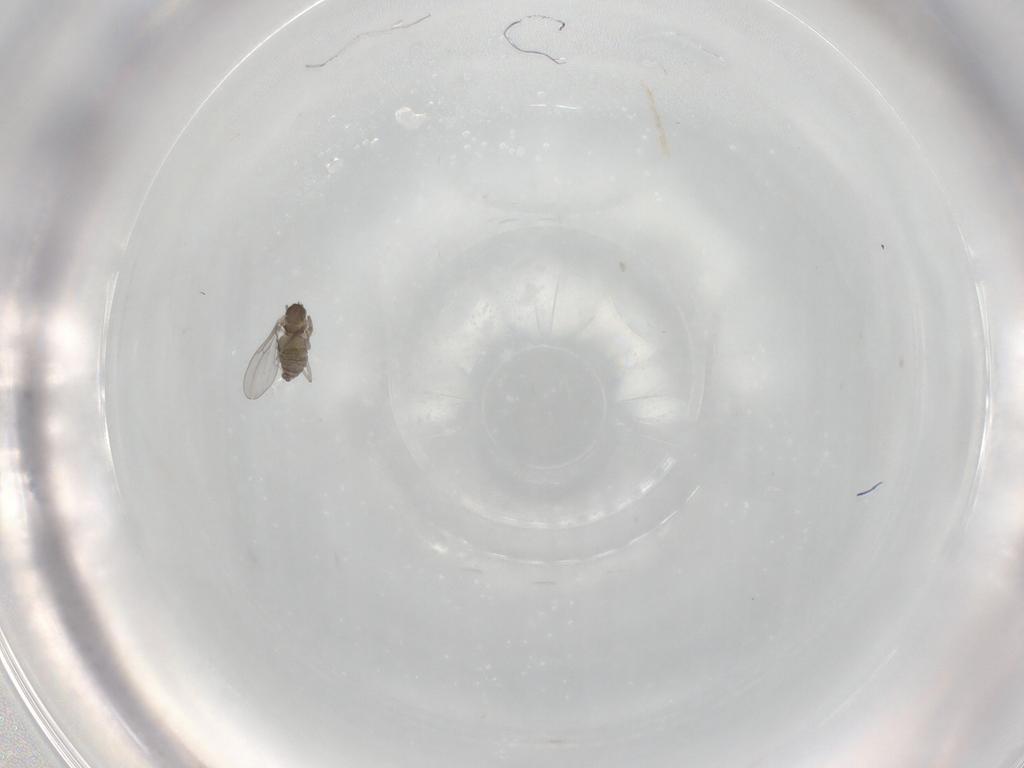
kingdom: Animalia
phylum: Arthropoda
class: Insecta
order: Diptera
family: Cecidomyiidae
